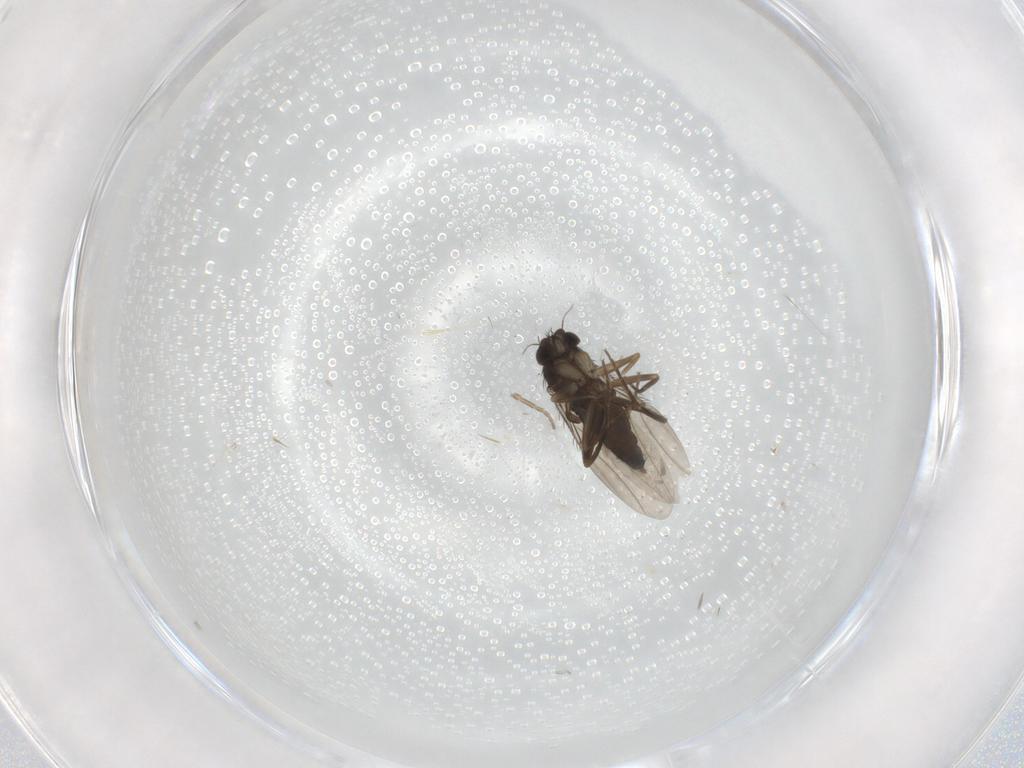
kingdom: Animalia
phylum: Arthropoda
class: Insecta
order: Diptera
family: Phoridae
